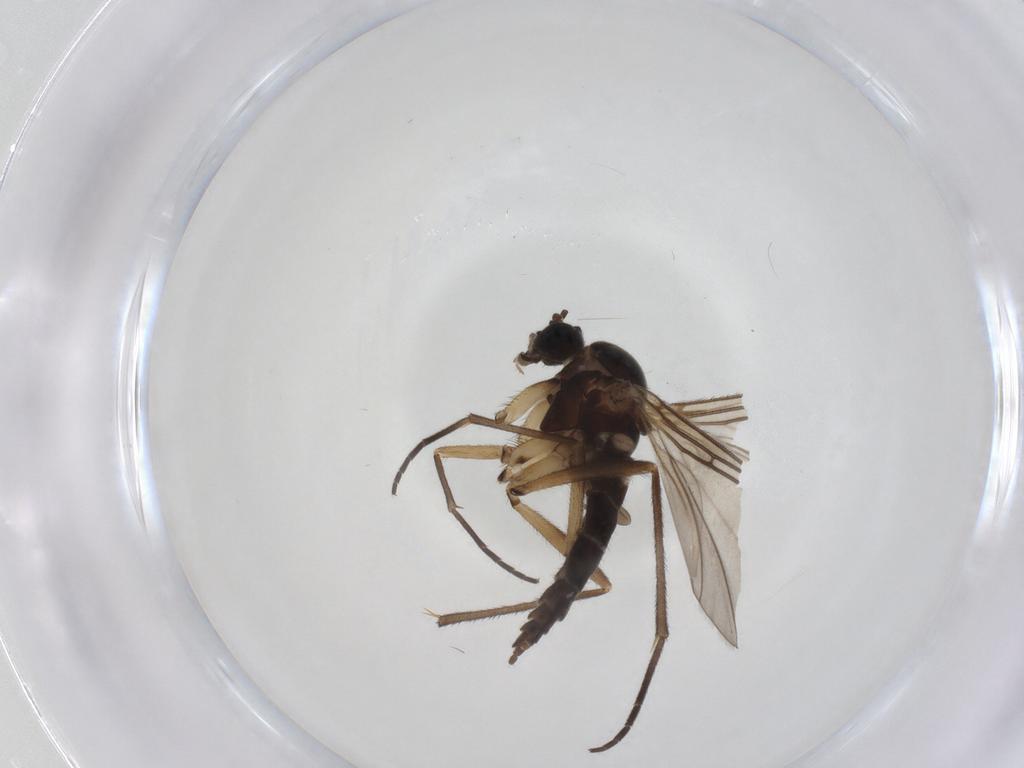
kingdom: Animalia
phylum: Arthropoda
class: Insecta
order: Diptera
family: Sciaridae
